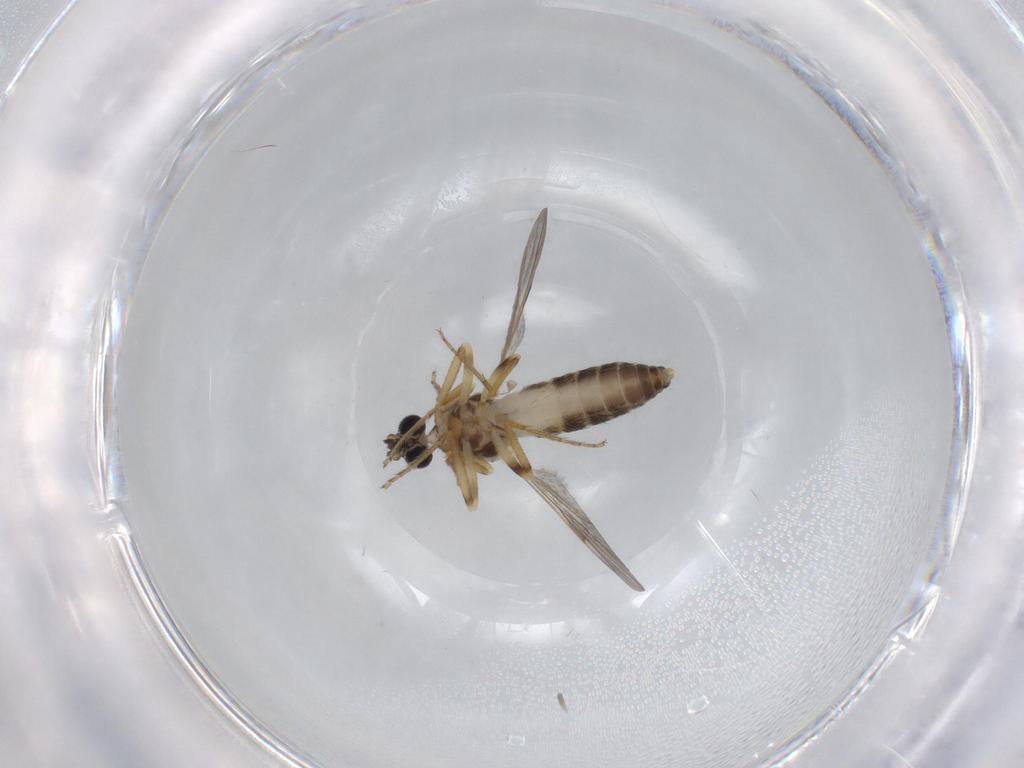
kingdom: Animalia
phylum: Arthropoda
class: Insecta
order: Diptera
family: Sciaridae
